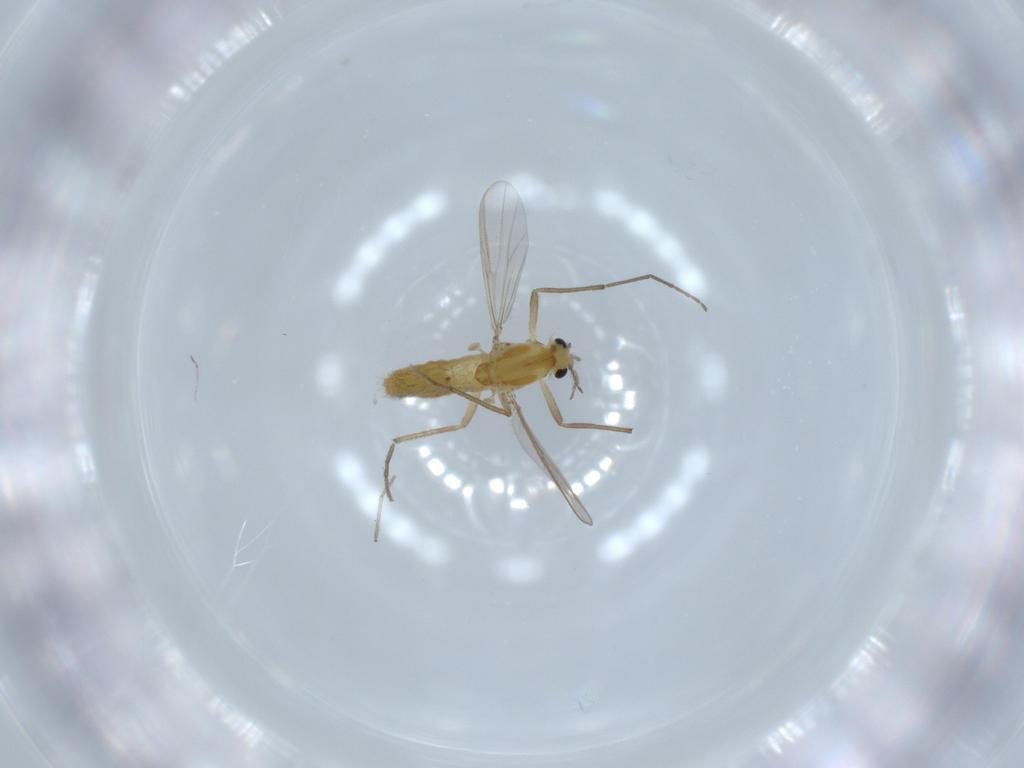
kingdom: Animalia
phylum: Arthropoda
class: Insecta
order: Diptera
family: Chironomidae
